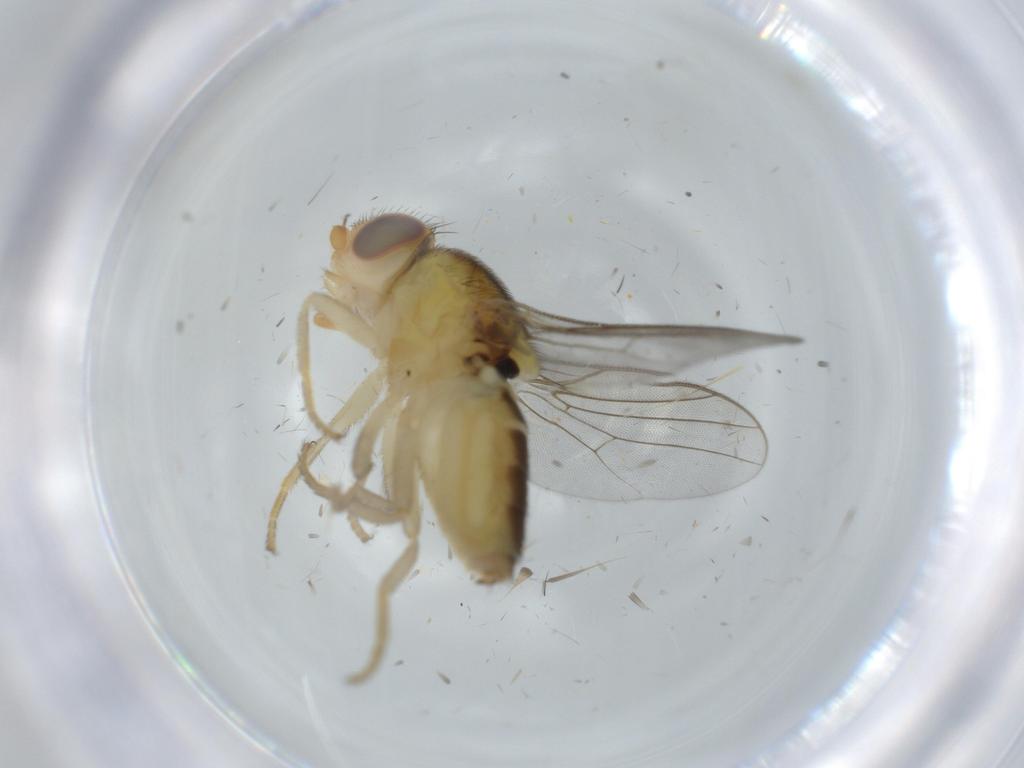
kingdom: Animalia
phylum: Arthropoda
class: Insecta
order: Diptera
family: Chloropidae
